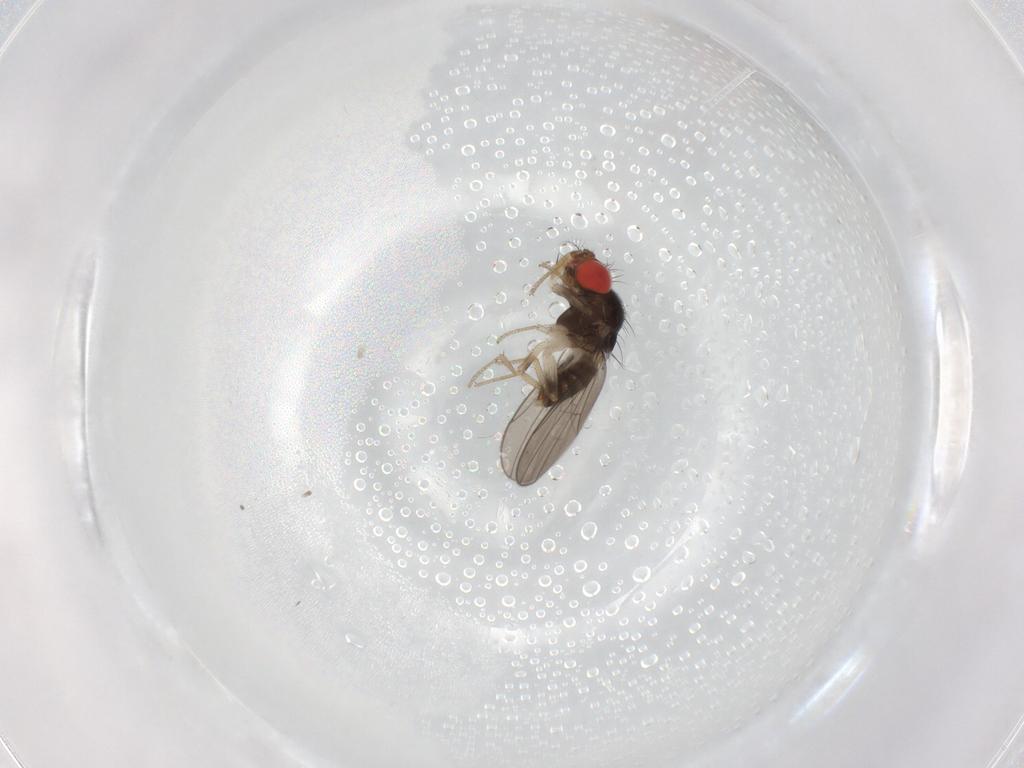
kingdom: Animalia
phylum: Arthropoda
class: Insecta
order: Diptera
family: Drosophilidae
